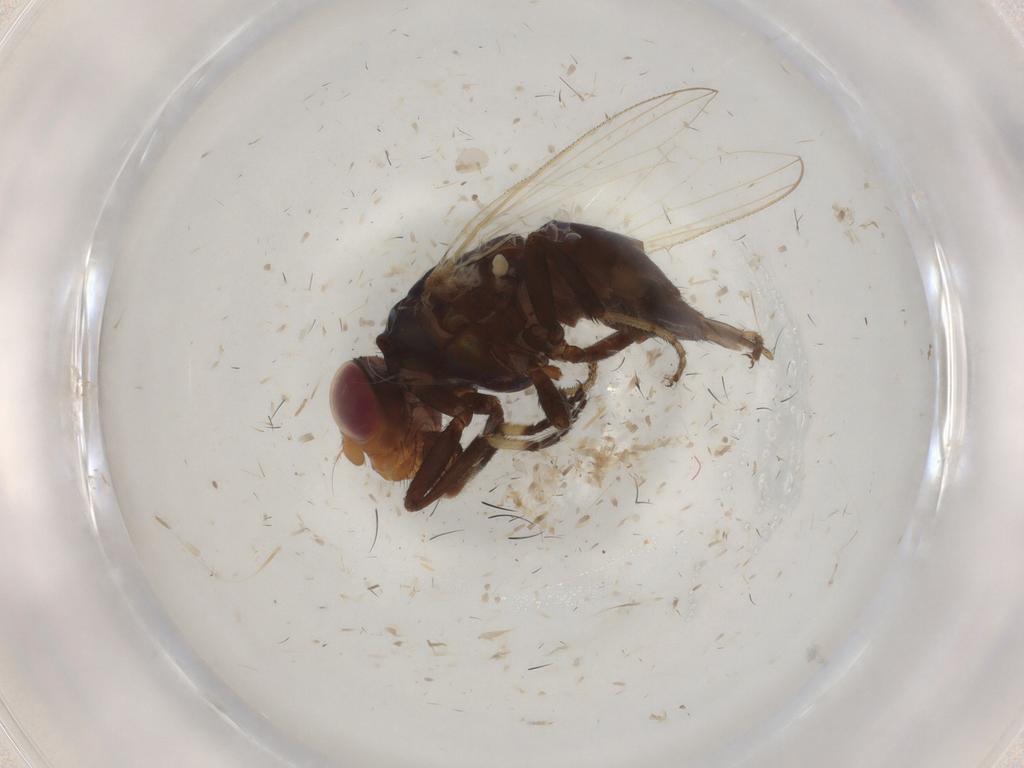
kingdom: Animalia
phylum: Arthropoda
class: Insecta
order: Diptera
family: Ulidiidae
